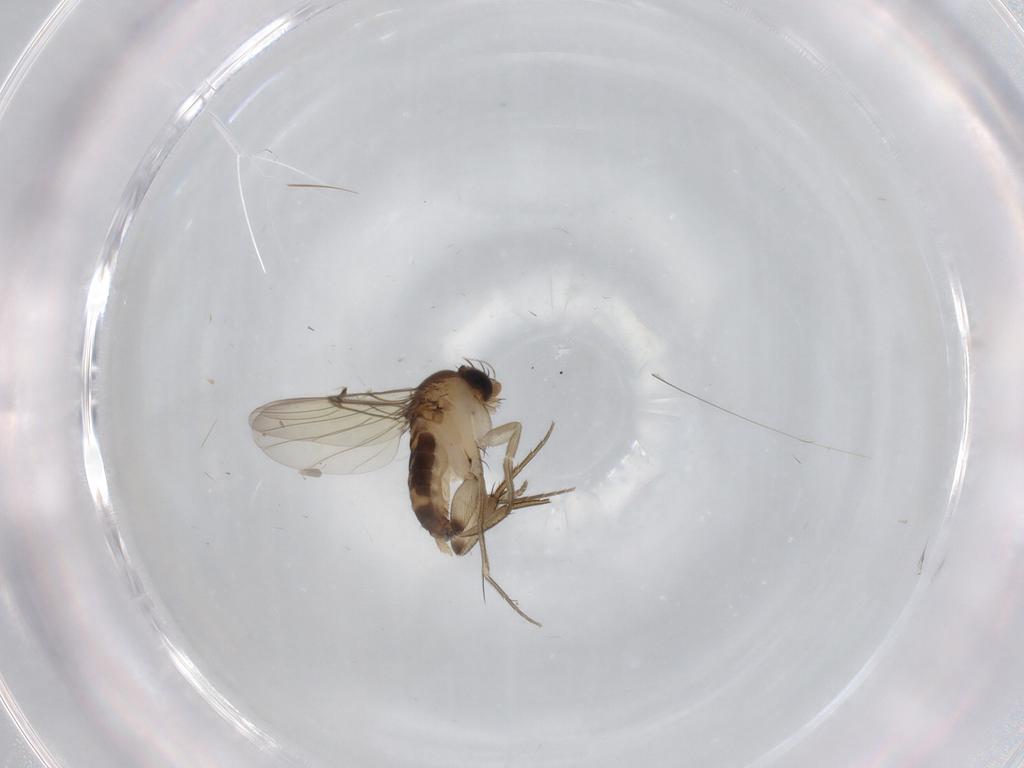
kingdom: Animalia
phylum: Arthropoda
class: Insecta
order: Diptera
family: Phoridae
